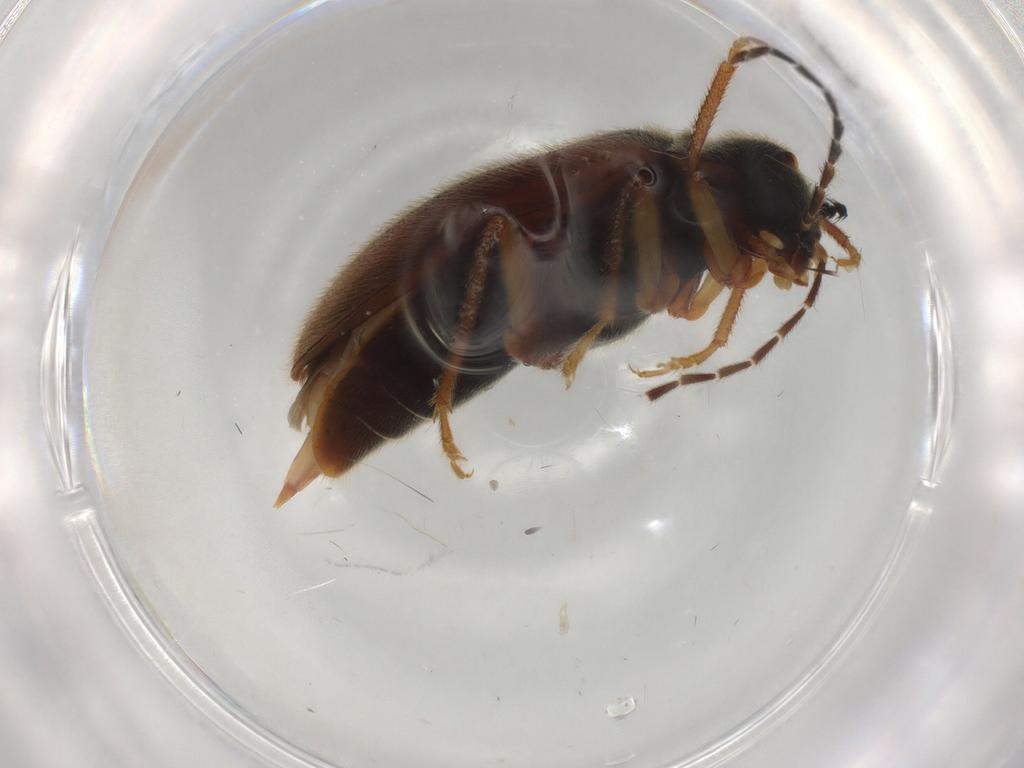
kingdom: Animalia
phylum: Arthropoda
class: Insecta
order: Coleoptera
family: Ptilodactylidae
